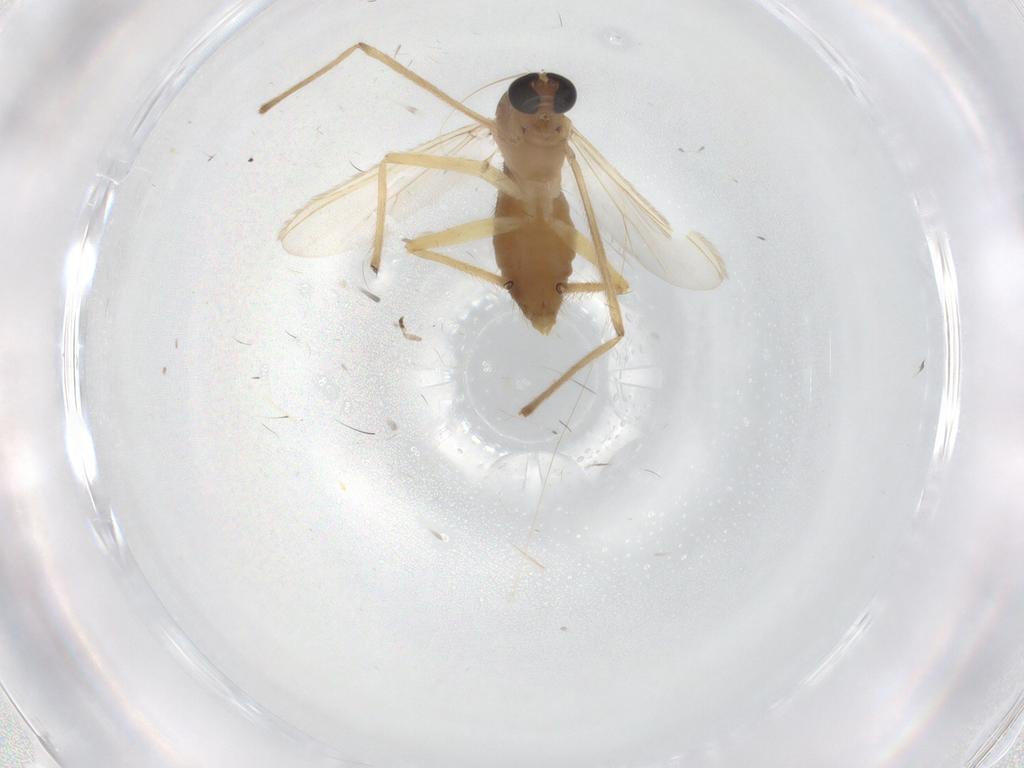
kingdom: Animalia
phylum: Arthropoda
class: Insecta
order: Diptera
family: Chironomidae
